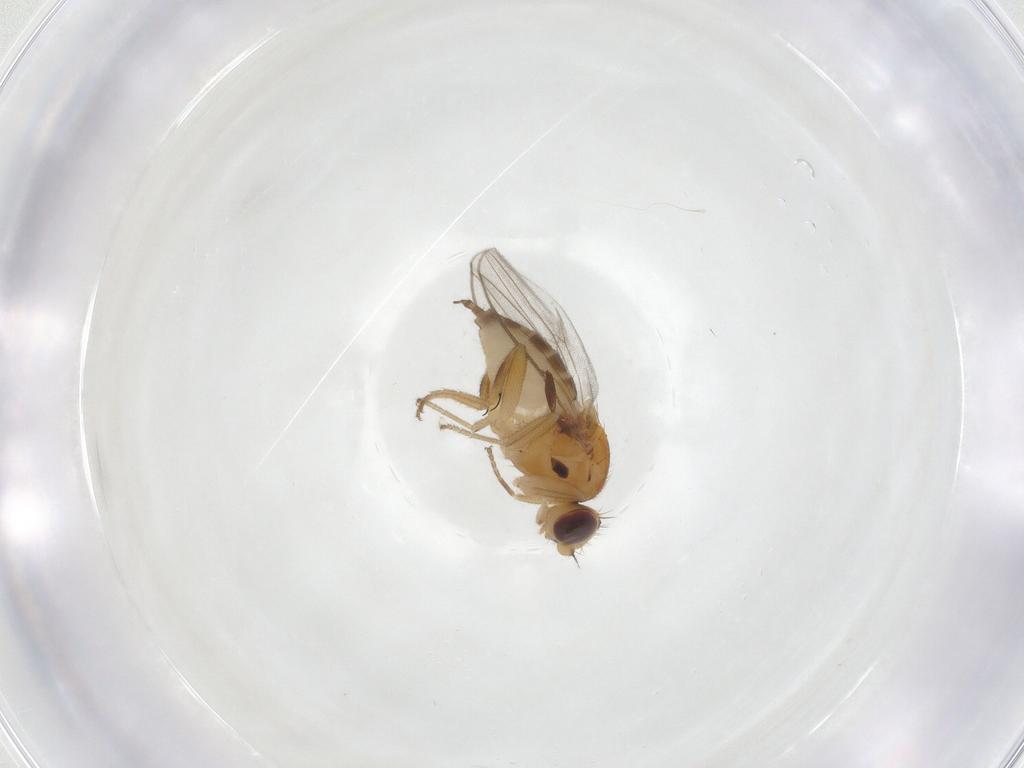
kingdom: Animalia
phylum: Arthropoda
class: Insecta
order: Diptera
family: Chloropidae
